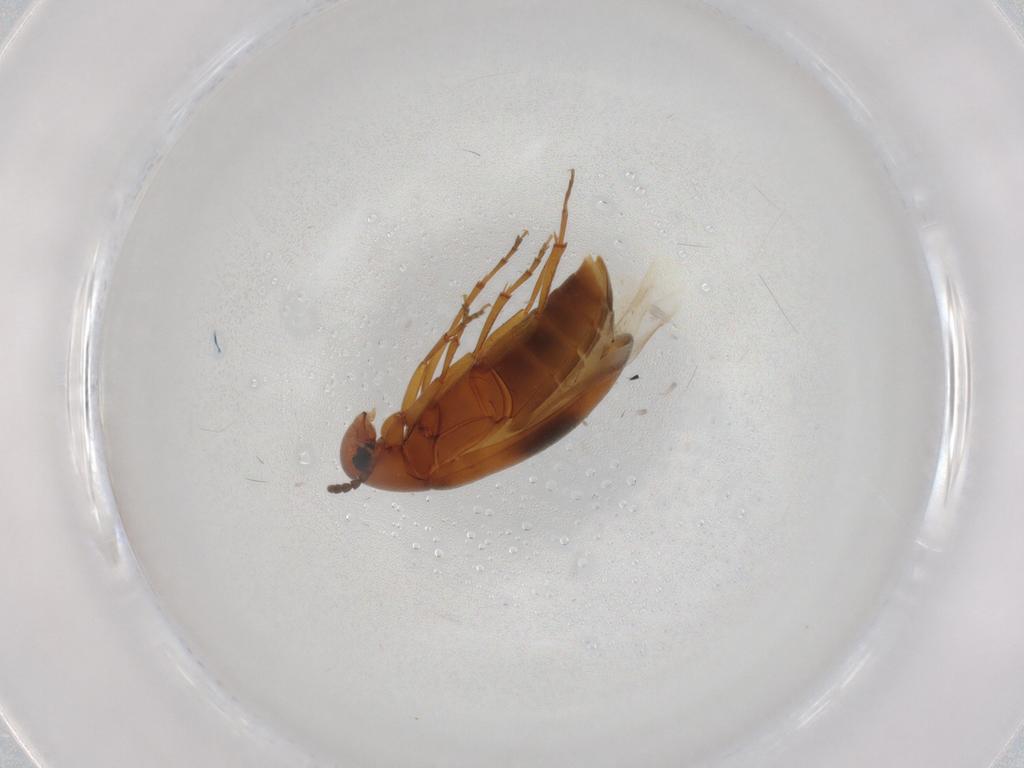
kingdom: Animalia
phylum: Arthropoda
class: Insecta
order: Coleoptera
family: Scraptiidae
